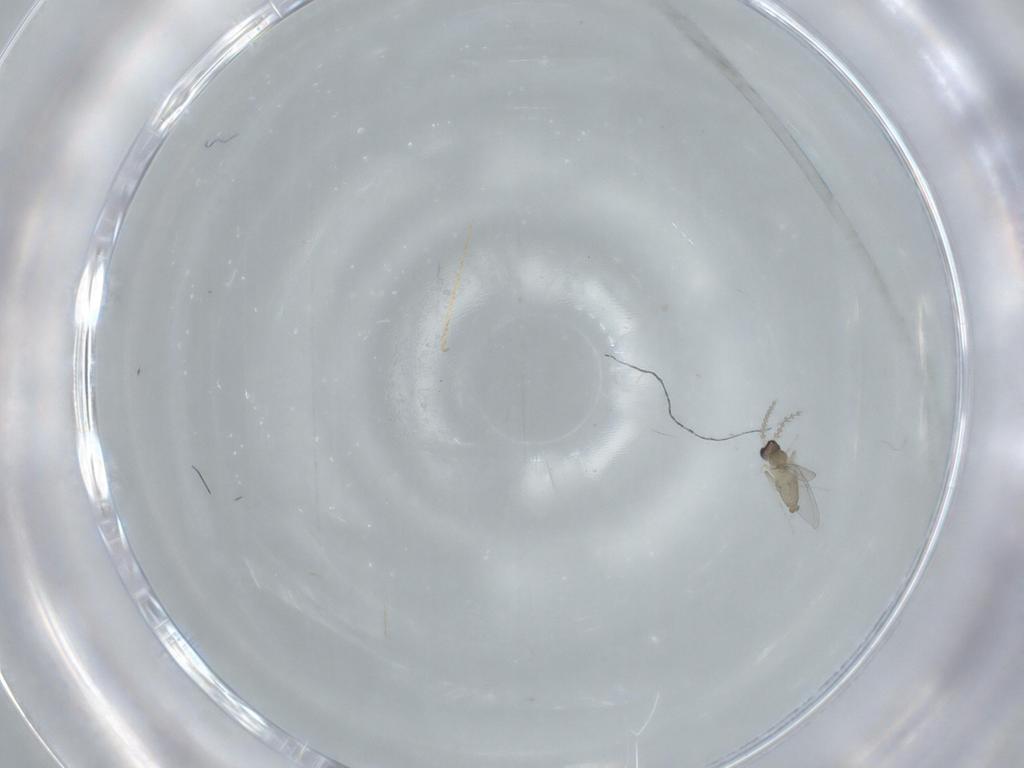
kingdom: Animalia
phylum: Arthropoda
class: Insecta
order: Diptera
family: Cecidomyiidae
